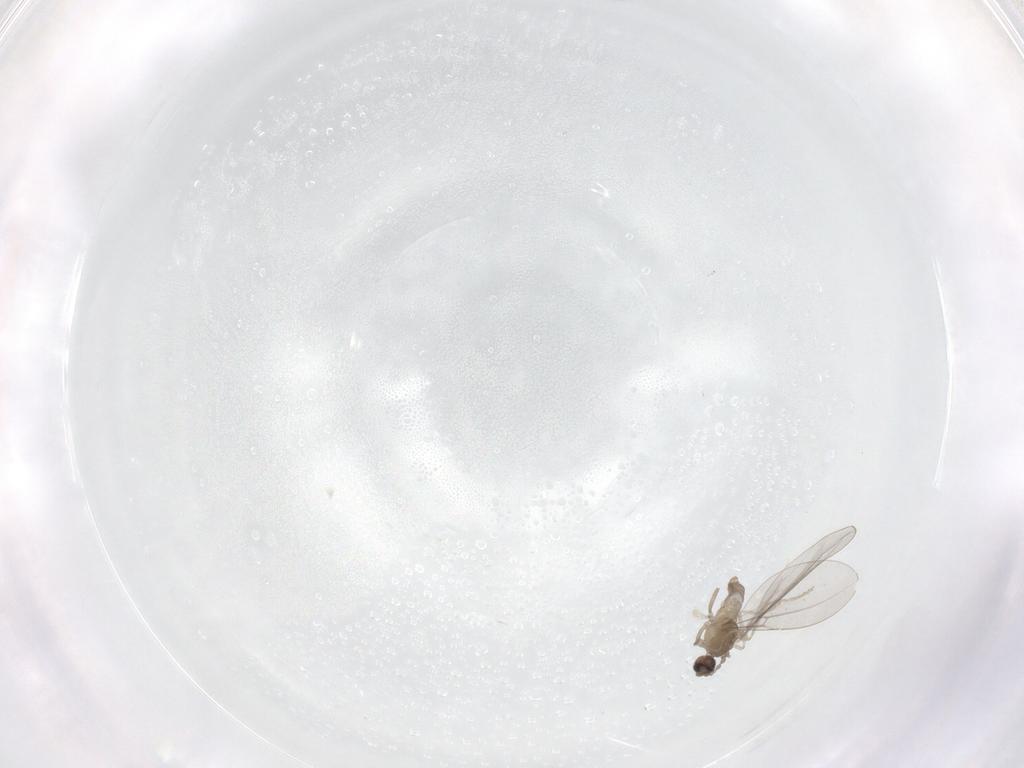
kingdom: Animalia
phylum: Arthropoda
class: Insecta
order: Diptera
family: Cecidomyiidae
